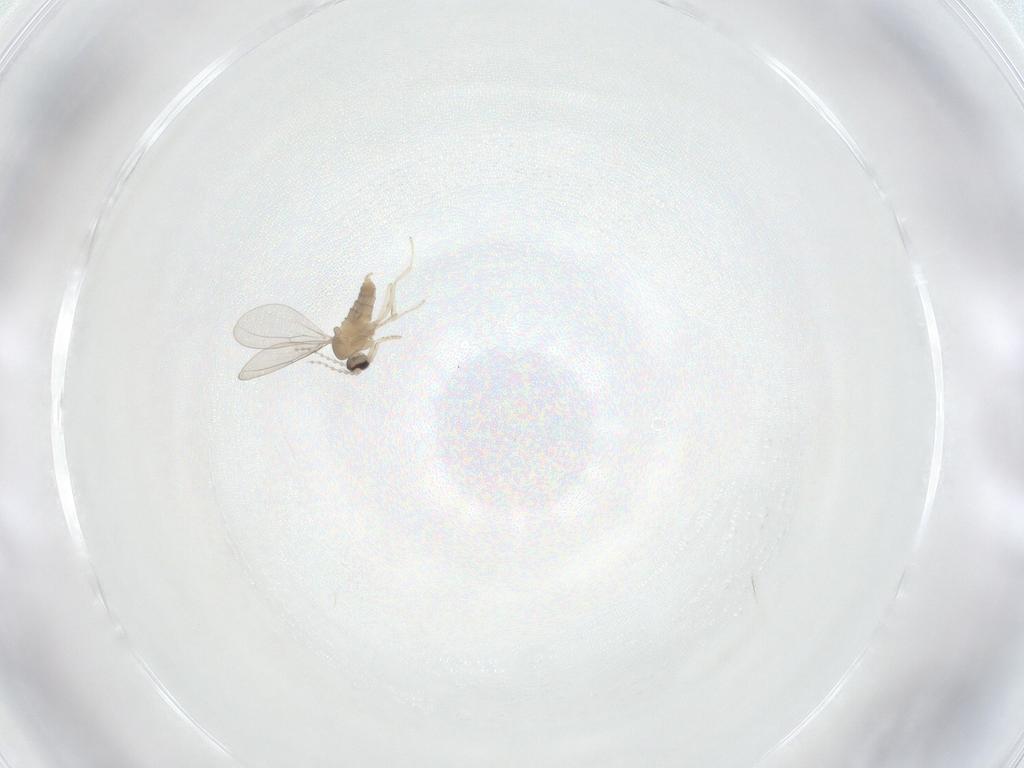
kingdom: Animalia
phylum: Arthropoda
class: Insecta
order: Diptera
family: Cecidomyiidae
